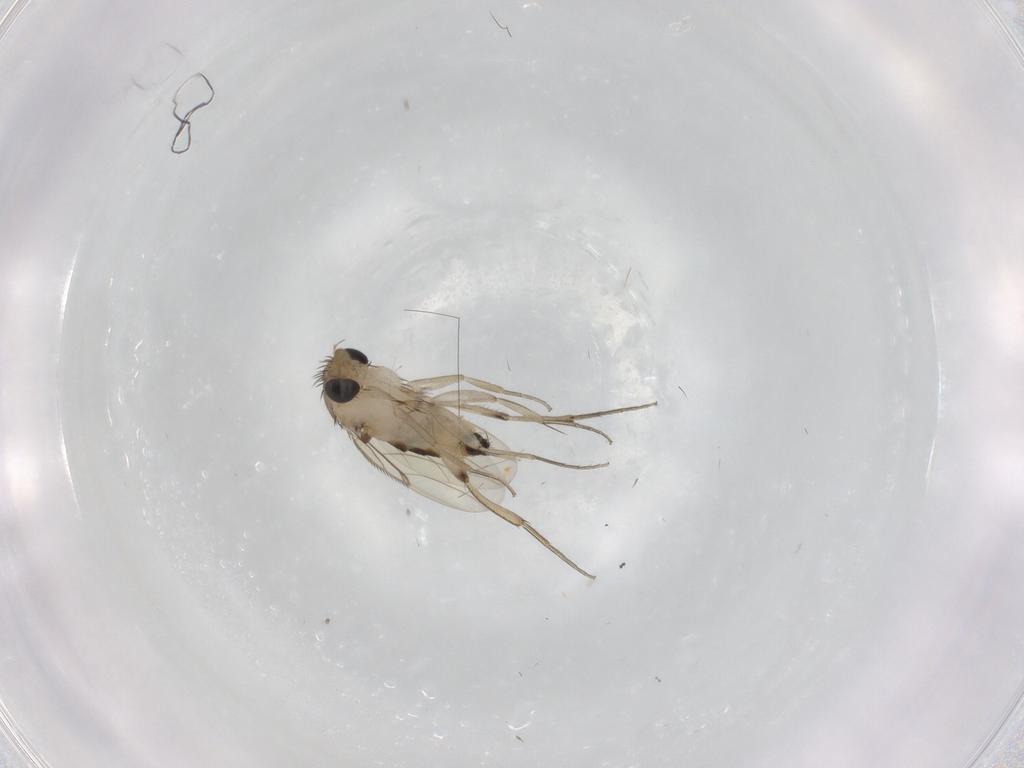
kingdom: Animalia
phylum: Arthropoda
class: Insecta
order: Diptera
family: Phoridae
